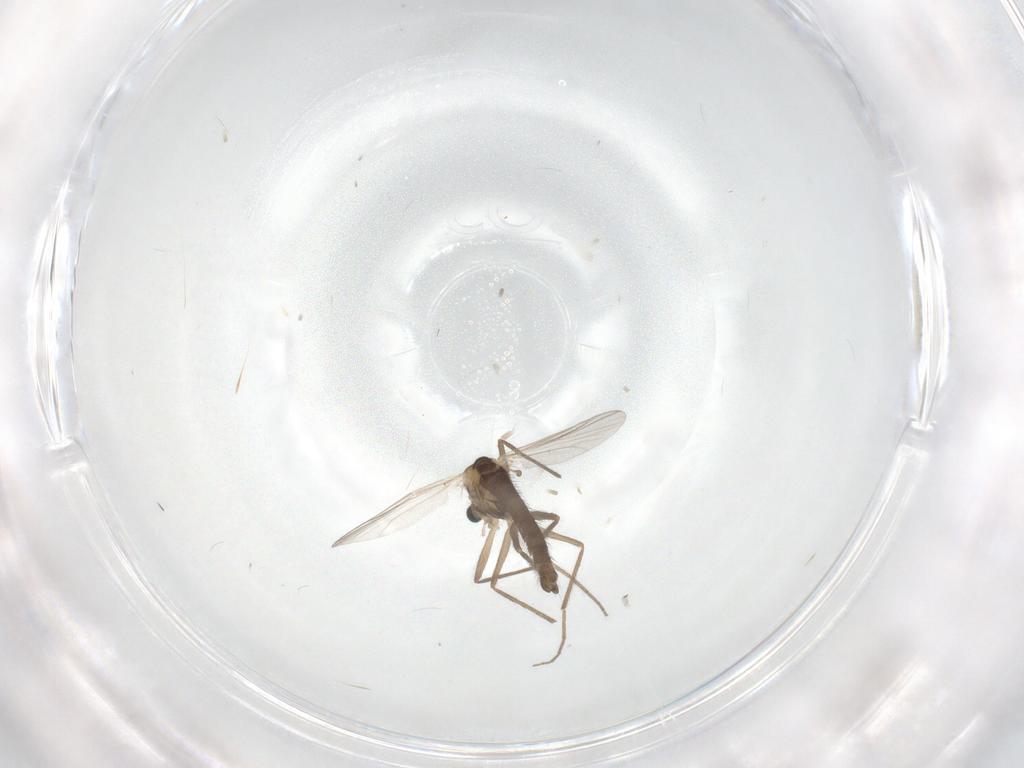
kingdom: Animalia
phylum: Arthropoda
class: Insecta
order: Diptera
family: Chironomidae
